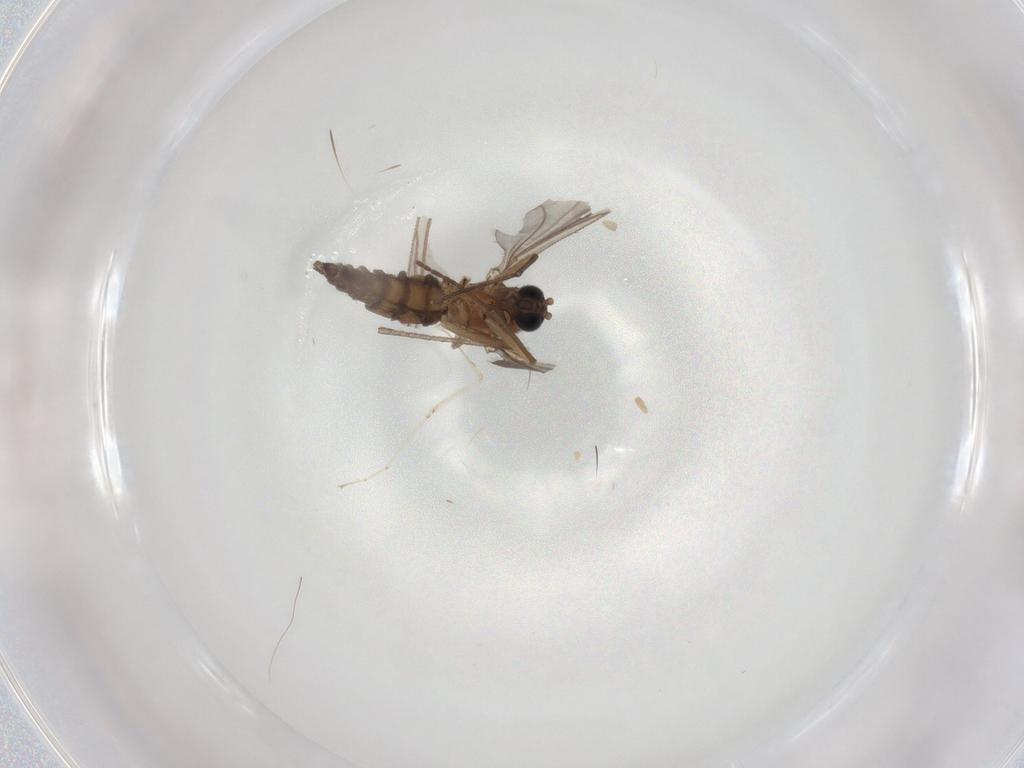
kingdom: Animalia
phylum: Arthropoda
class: Insecta
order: Diptera
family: Sciaridae
